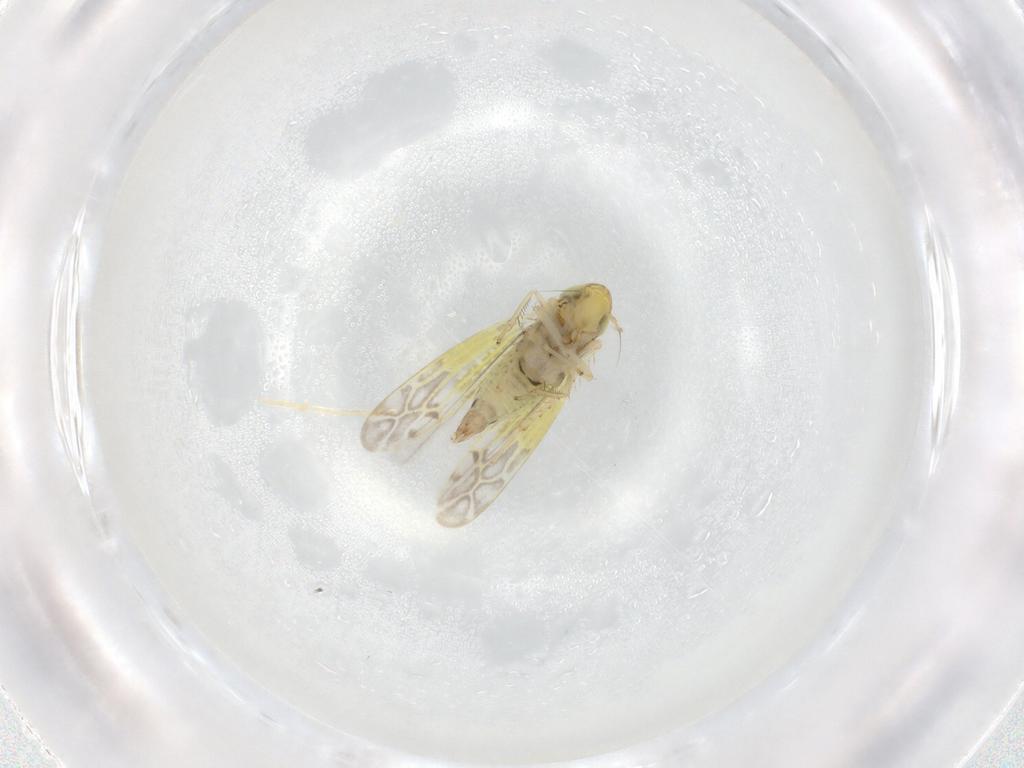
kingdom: Animalia
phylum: Arthropoda
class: Insecta
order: Hemiptera
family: Cicadellidae
